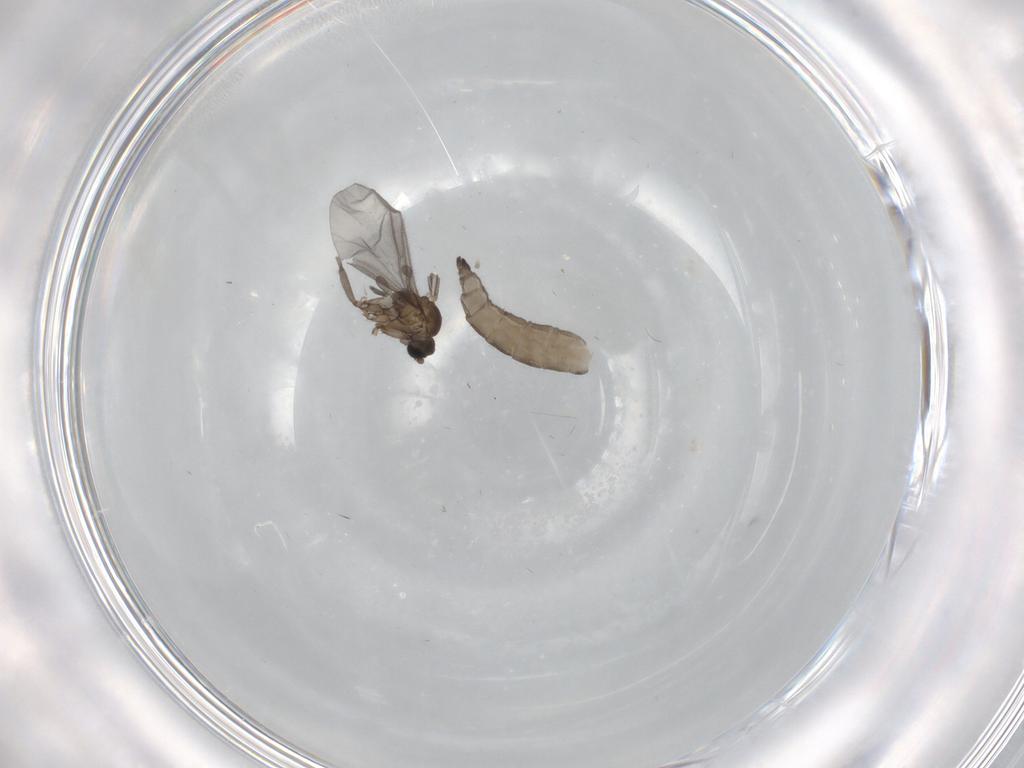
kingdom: Animalia
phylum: Arthropoda
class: Insecta
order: Diptera
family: Sciaridae
